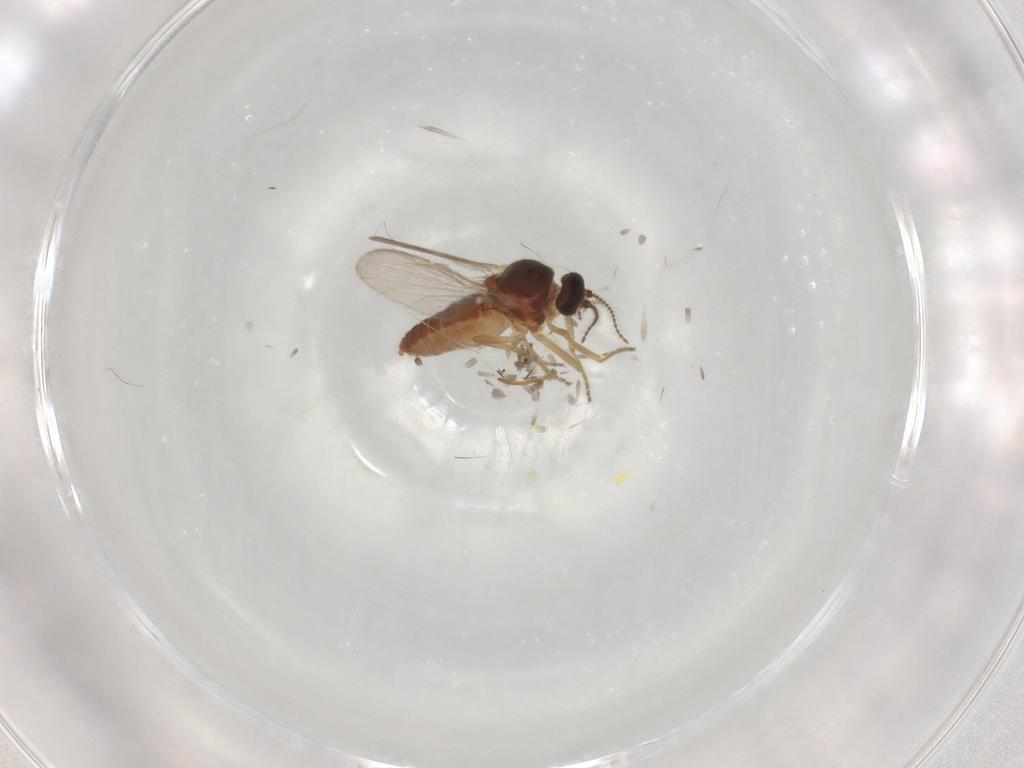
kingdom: Animalia
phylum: Arthropoda
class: Insecta
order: Diptera
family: Ceratopogonidae
